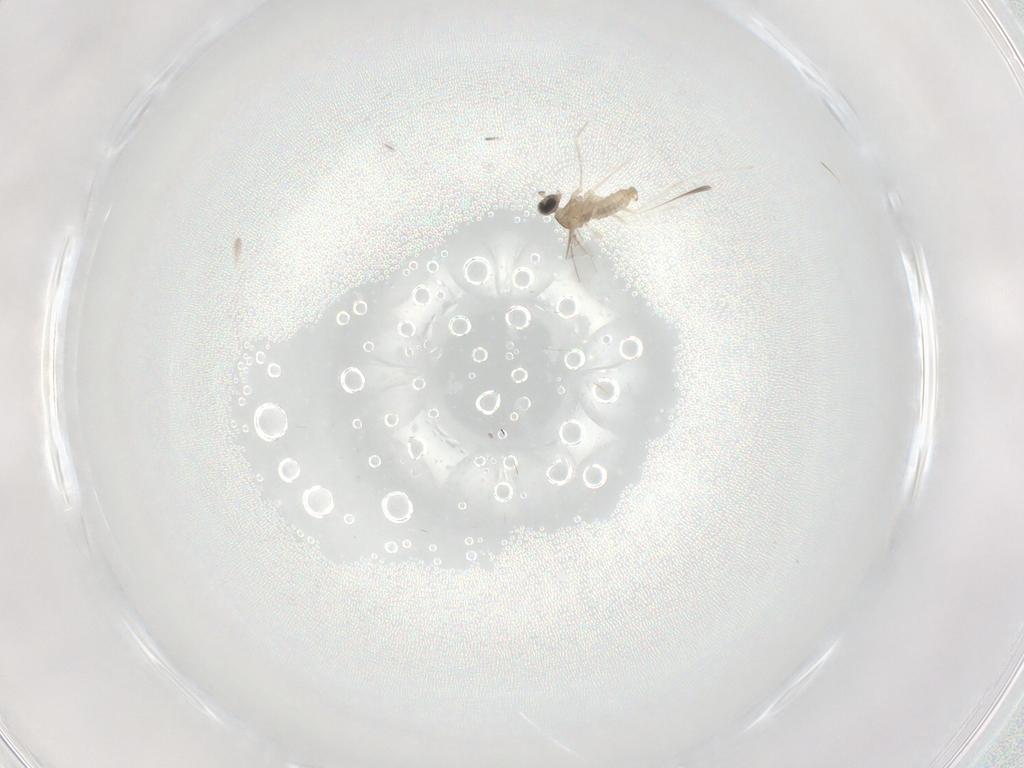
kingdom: Animalia
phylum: Arthropoda
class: Insecta
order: Diptera
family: Cecidomyiidae
